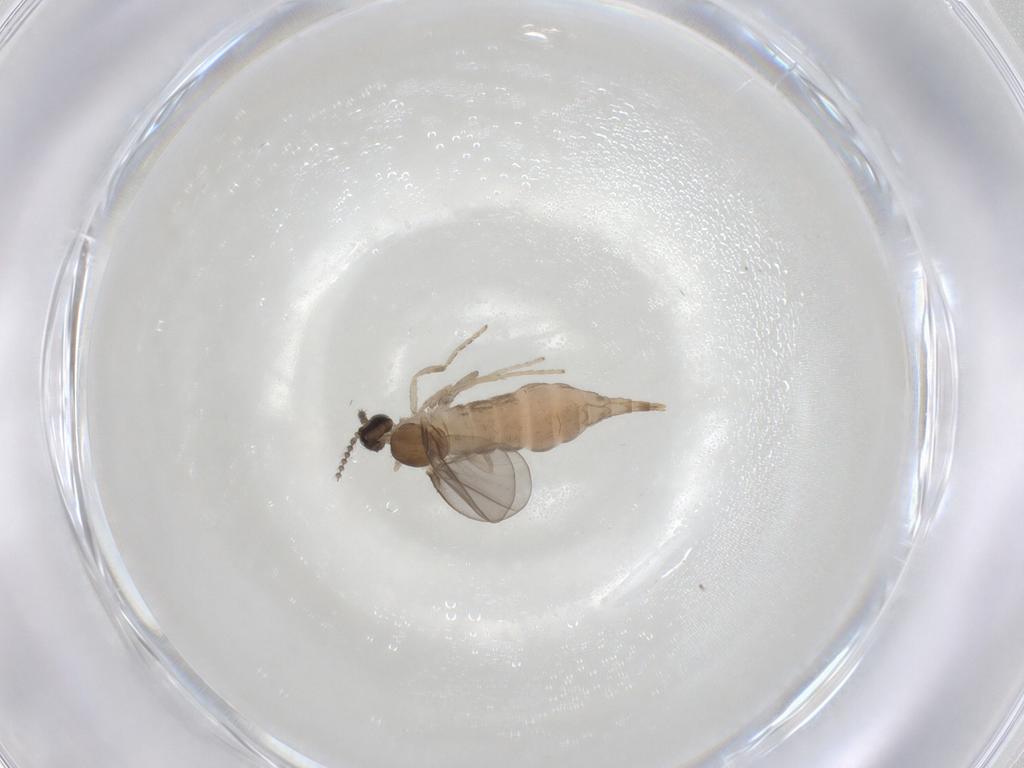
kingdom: Animalia
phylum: Arthropoda
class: Insecta
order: Diptera
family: Cecidomyiidae
